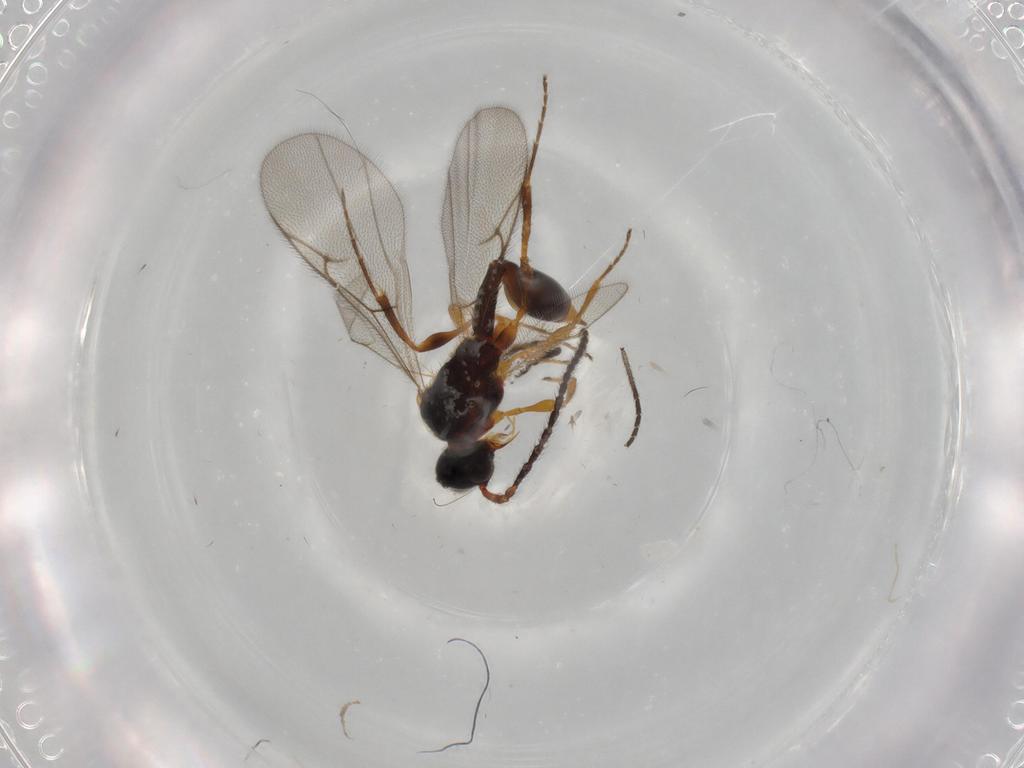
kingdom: Animalia
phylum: Arthropoda
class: Insecta
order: Hymenoptera
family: Diapriidae
